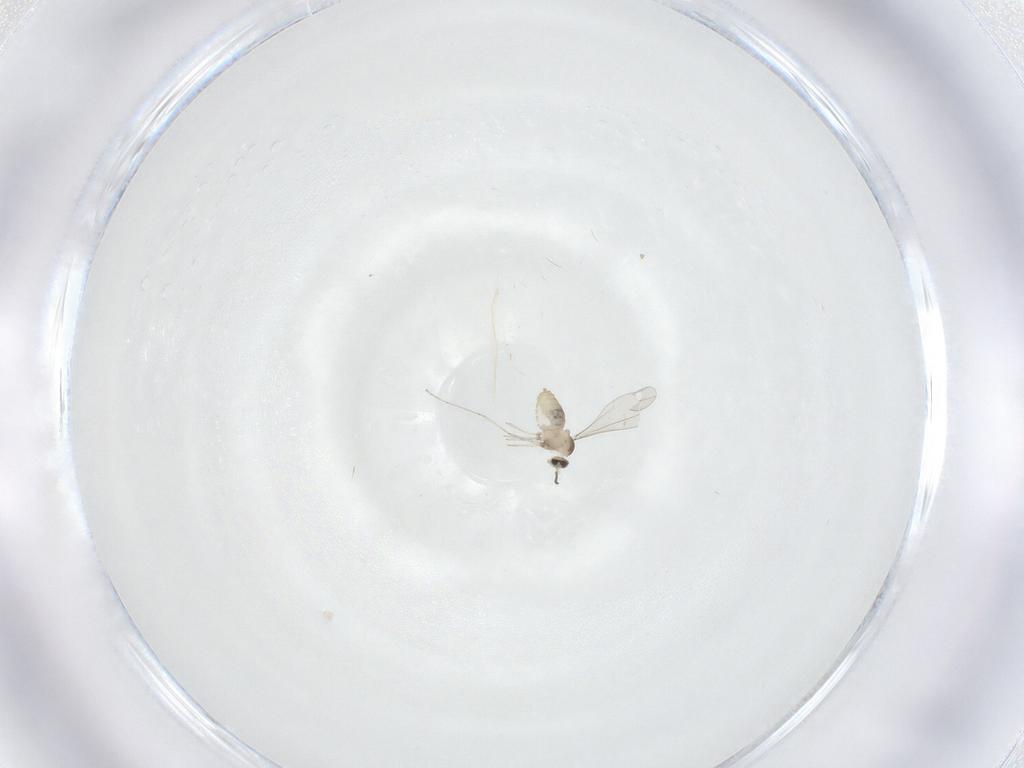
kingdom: Animalia
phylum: Arthropoda
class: Insecta
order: Diptera
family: Cecidomyiidae
